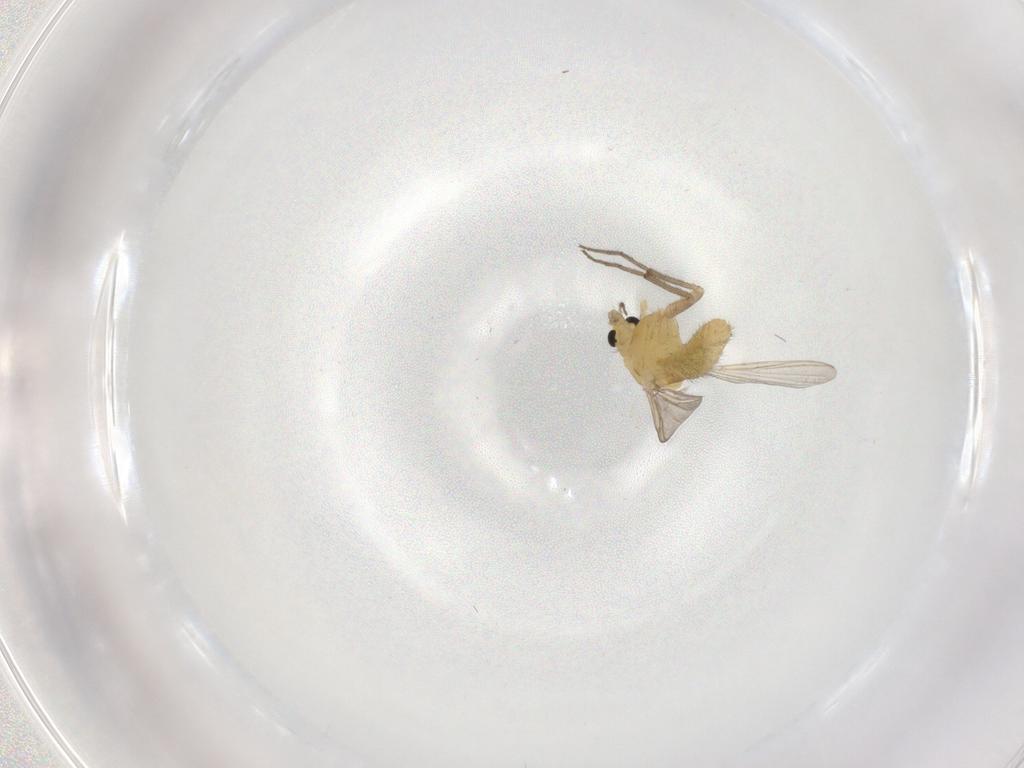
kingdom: Animalia
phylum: Arthropoda
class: Insecta
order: Diptera
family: Chironomidae
